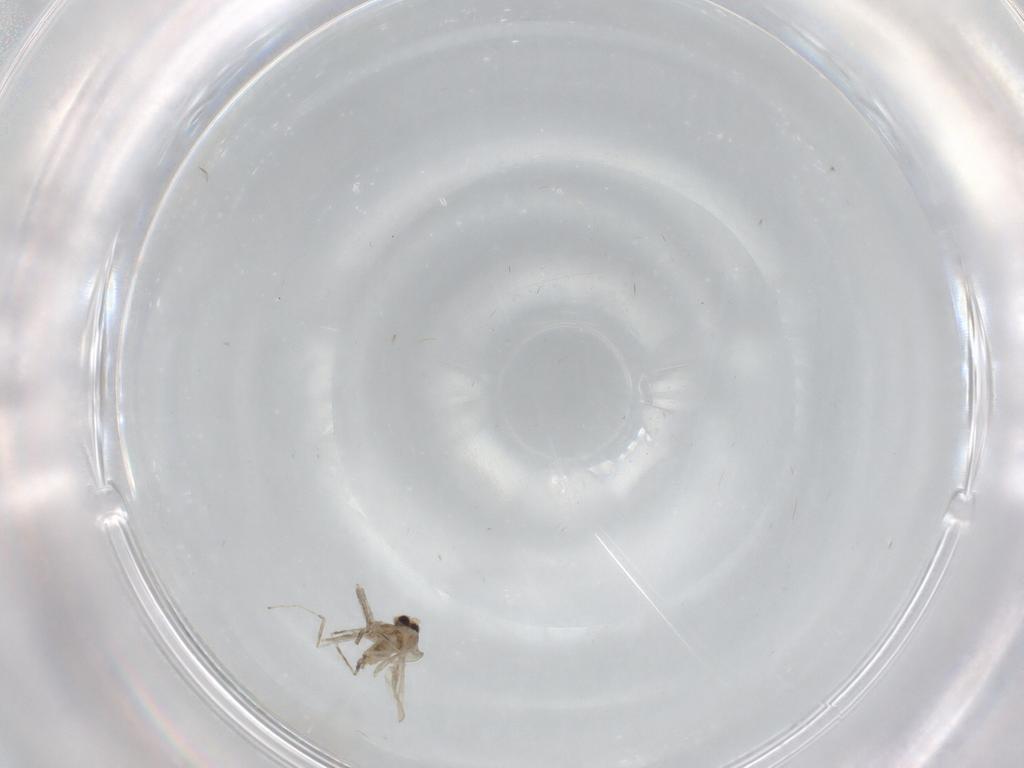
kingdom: Animalia
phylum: Arthropoda
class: Insecta
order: Diptera
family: Cecidomyiidae
